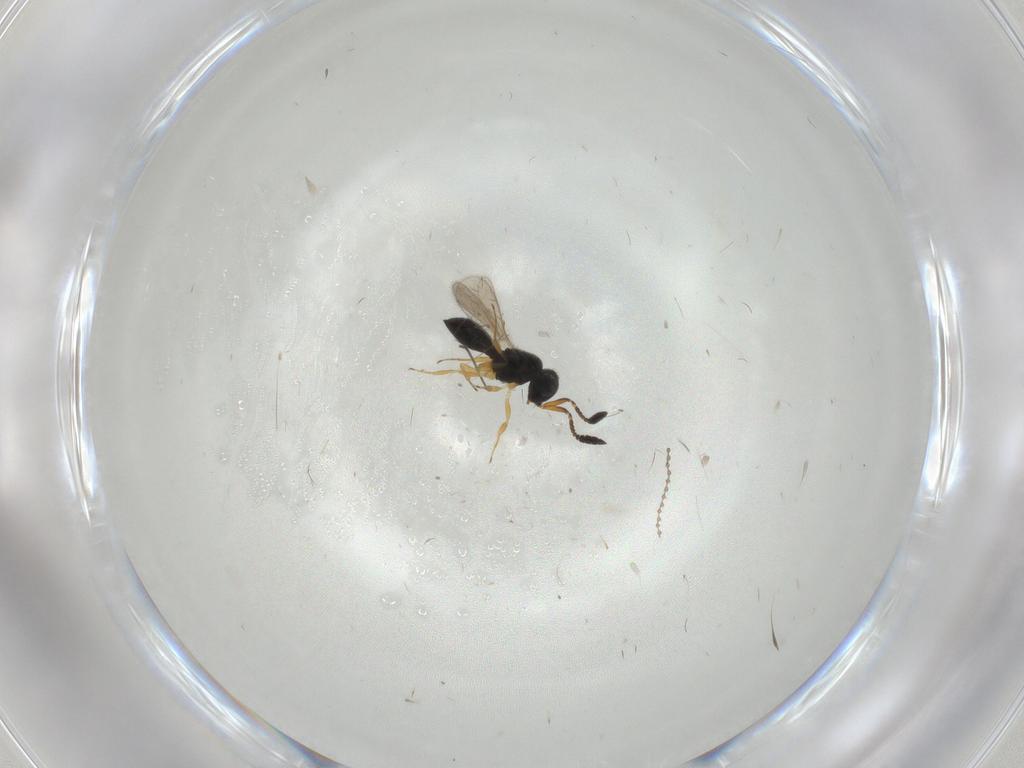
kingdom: Animalia
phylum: Arthropoda
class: Insecta
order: Hymenoptera
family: Scelionidae
